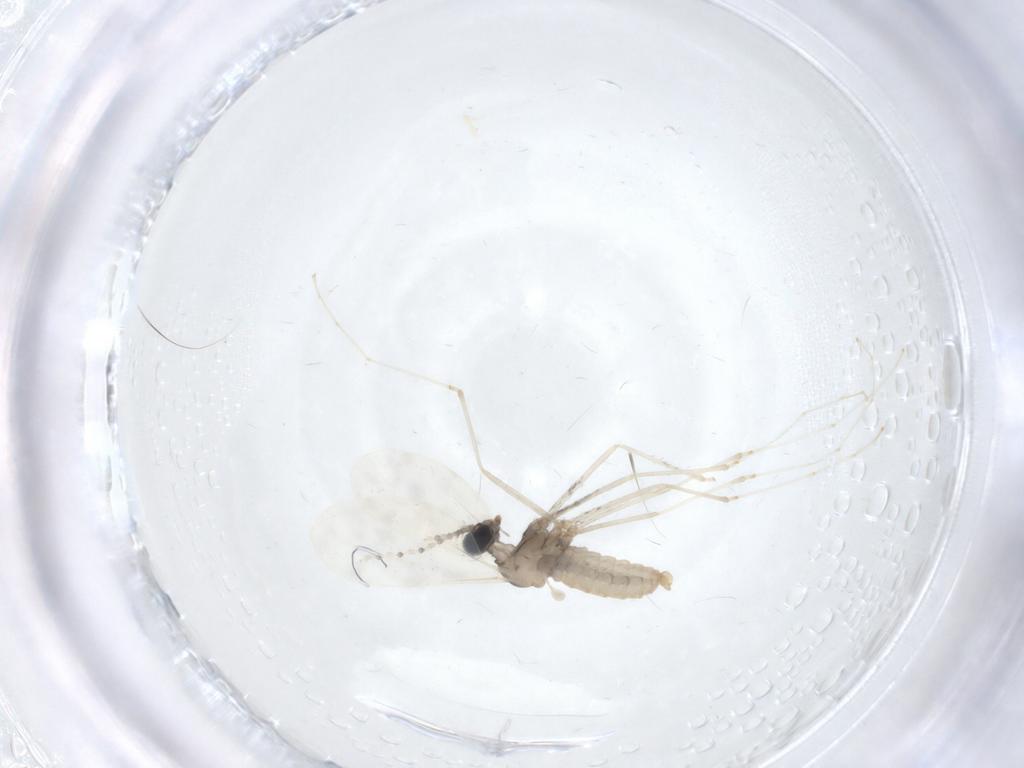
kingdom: Animalia
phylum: Arthropoda
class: Insecta
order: Diptera
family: Cecidomyiidae
